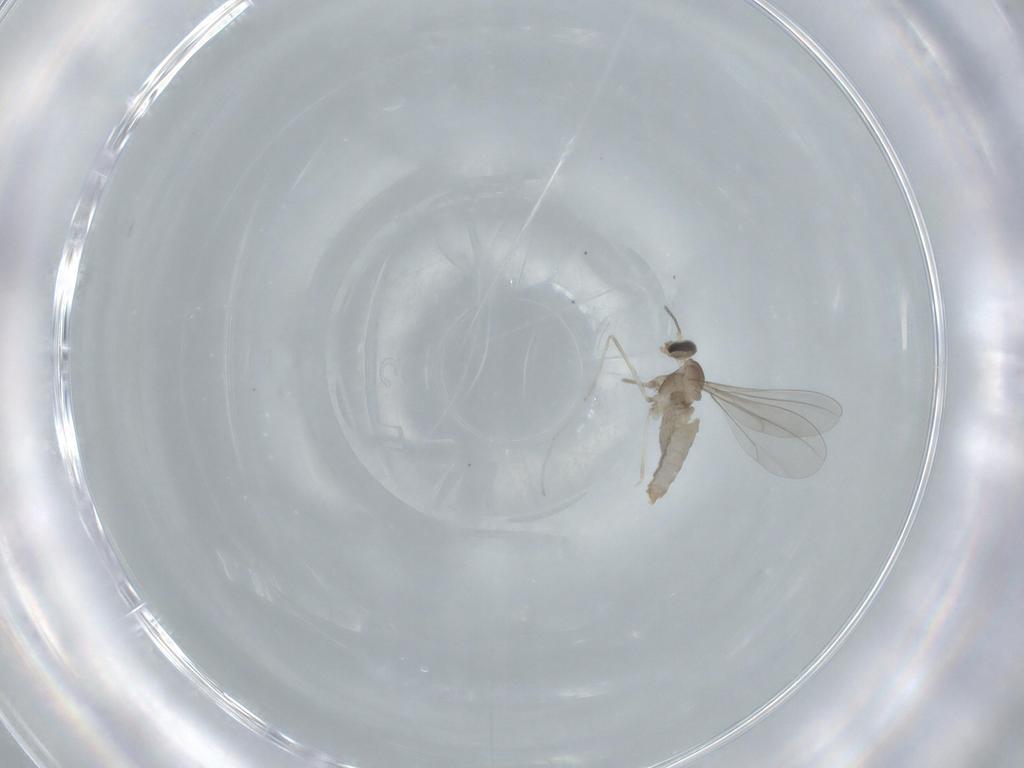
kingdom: Animalia
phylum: Arthropoda
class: Insecta
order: Diptera
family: Cecidomyiidae
